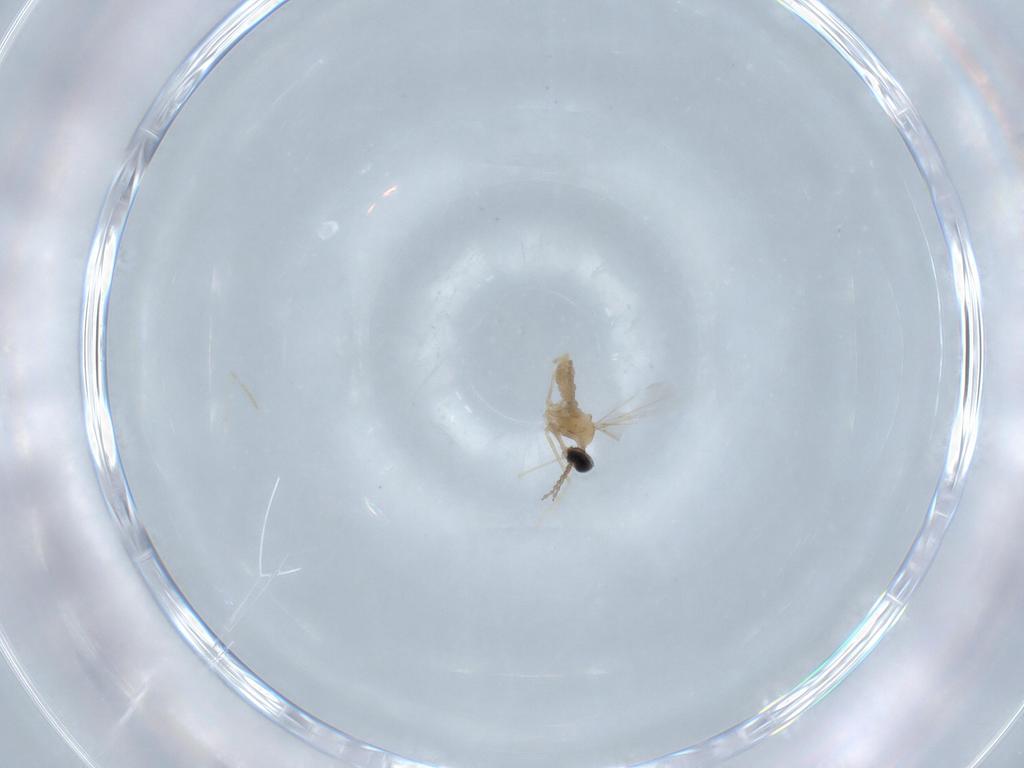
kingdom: Animalia
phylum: Arthropoda
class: Insecta
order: Diptera
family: Cecidomyiidae
